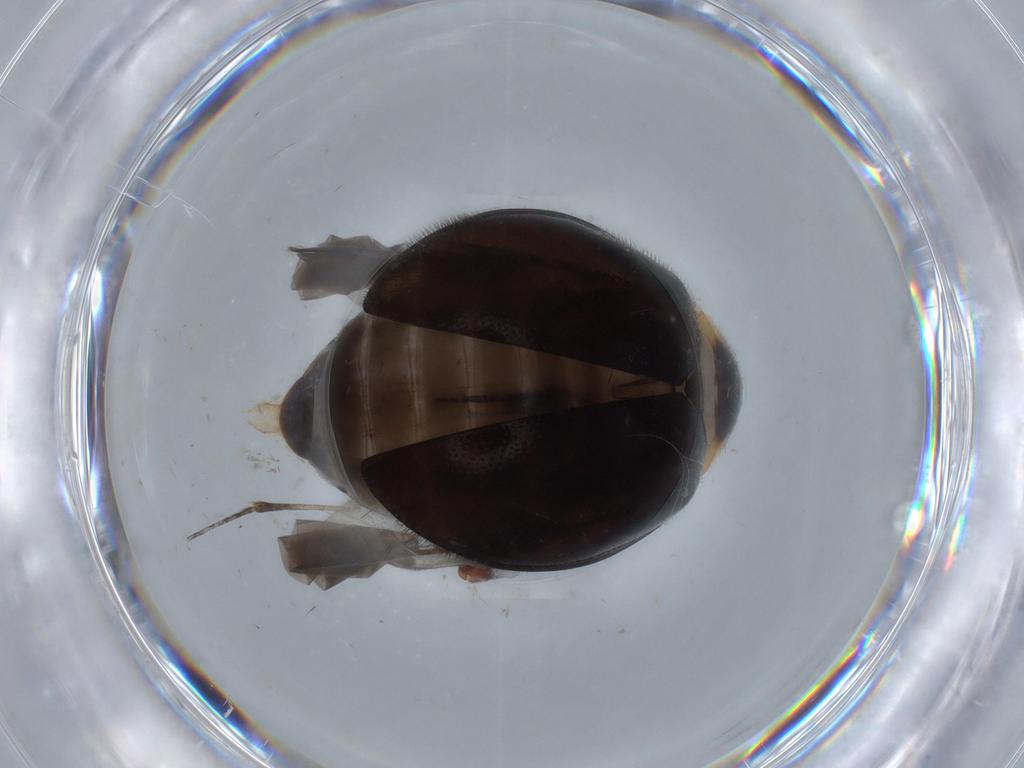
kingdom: Animalia
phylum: Arthropoda
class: Insecta
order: Coleoptera
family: Scirtidae
